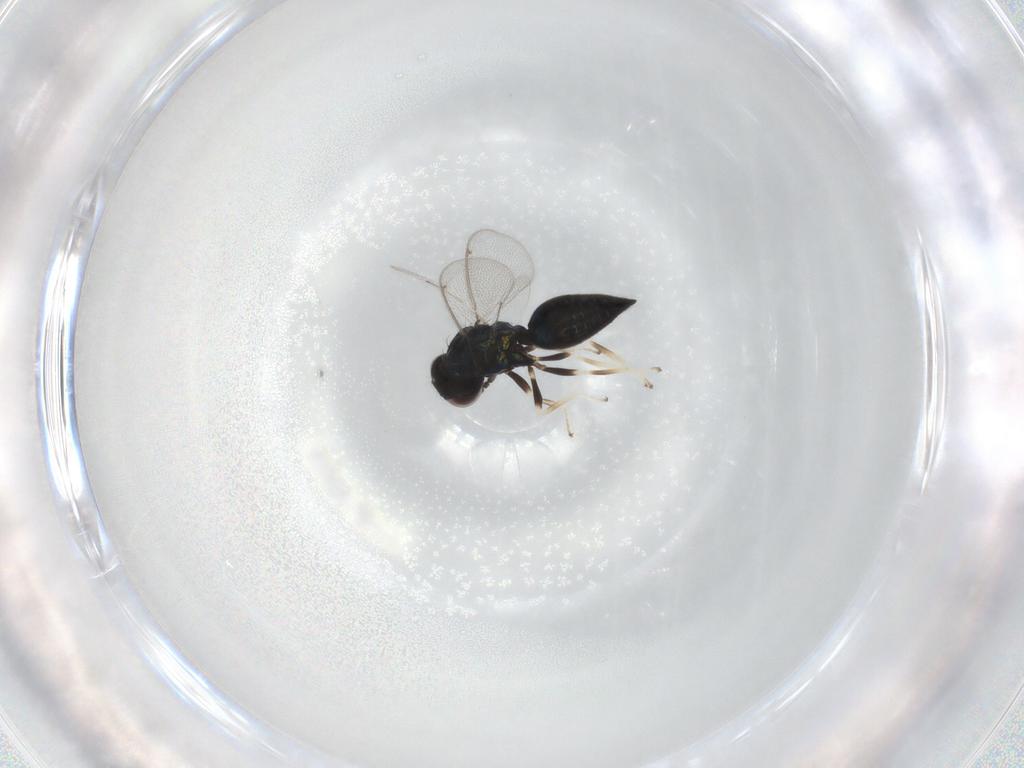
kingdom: Animalia
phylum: Arthropoda
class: Insecta
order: Hymenoptera
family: Eulophidae
